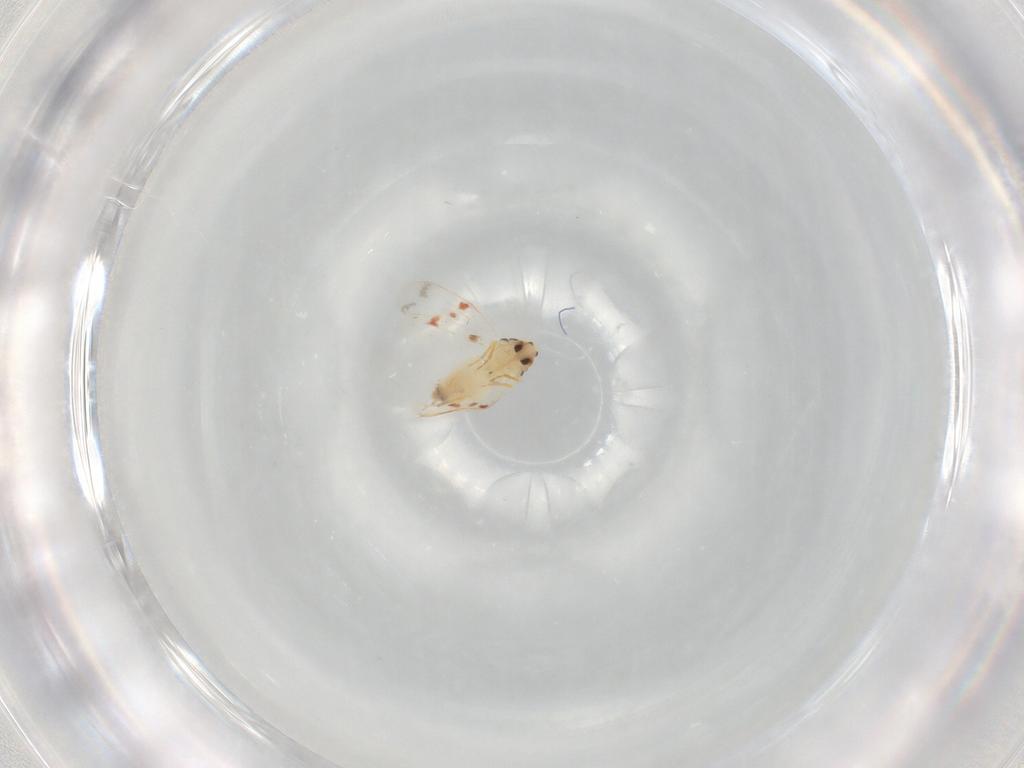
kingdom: Animalia
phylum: Arthropoda
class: Insecta
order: Hemiptera
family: Aleyrodidae
